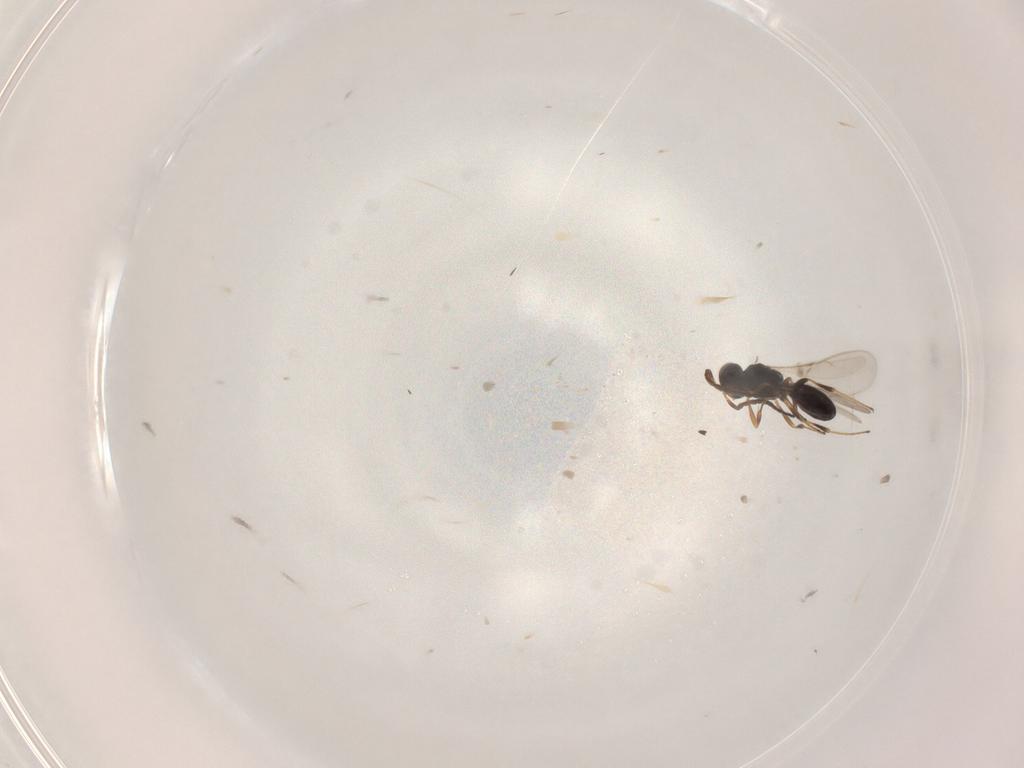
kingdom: Animalia
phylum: Arthropoda
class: Insecta
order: Hymenoptera
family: Scelionidae
